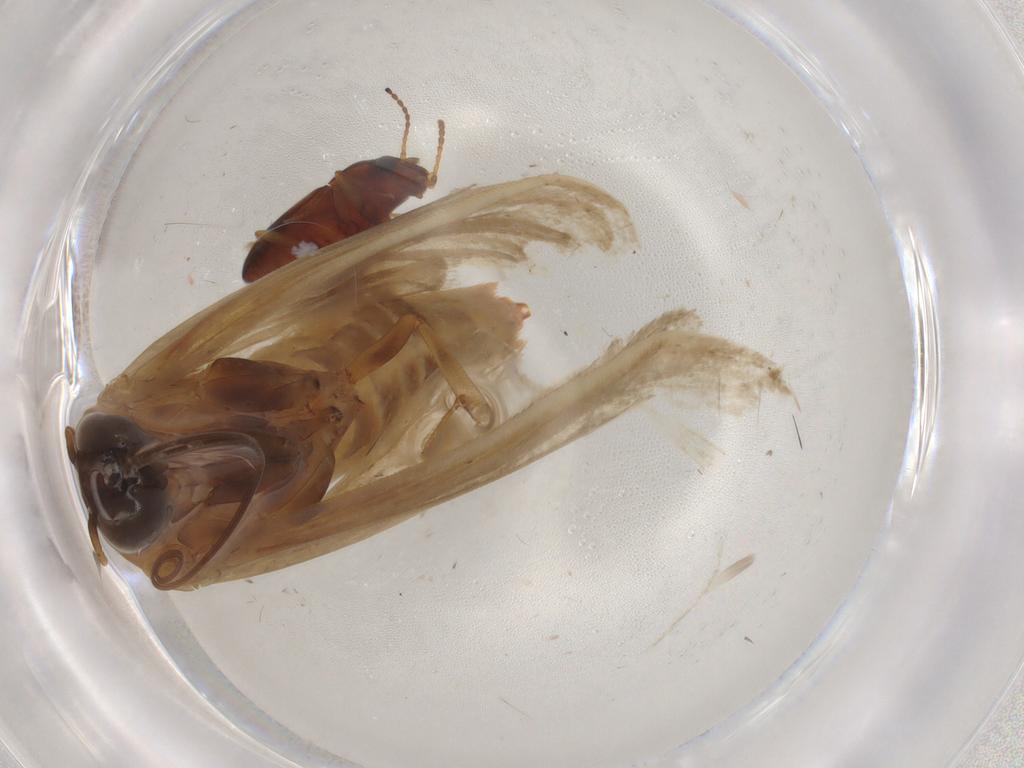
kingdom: Animalia
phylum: Arthropoda
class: Insecta
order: Lepidoptera
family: Pyralidae
